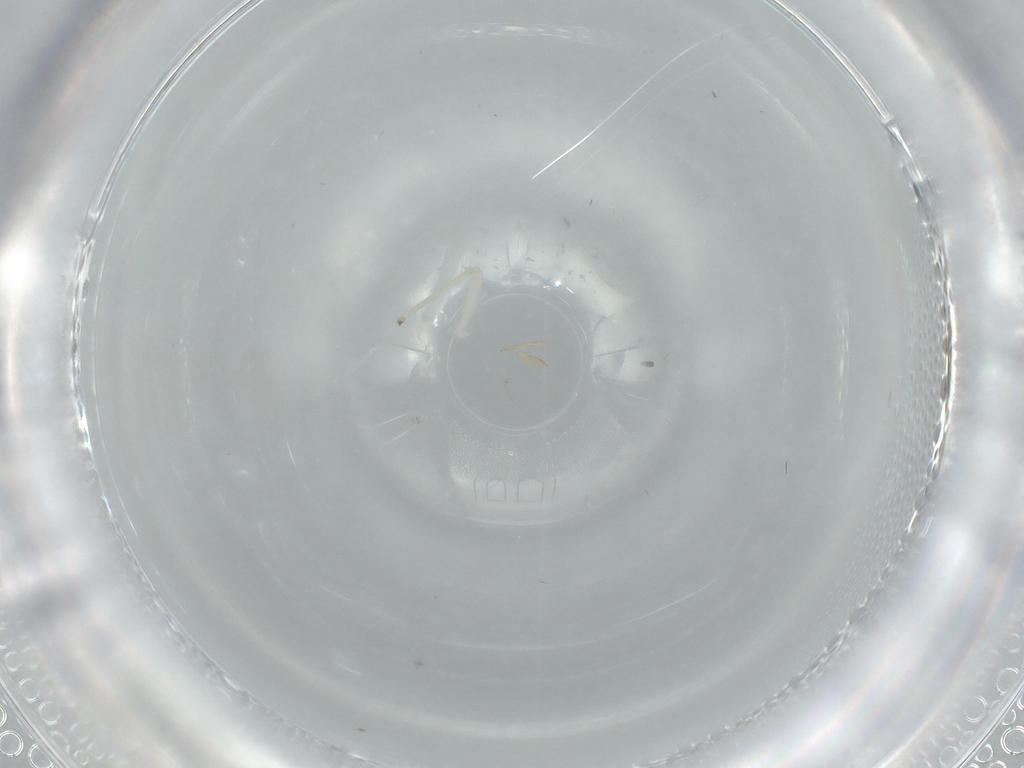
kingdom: Animalia
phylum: Arthropoda
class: Insecta
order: Psocodea
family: Caeciliusidae
